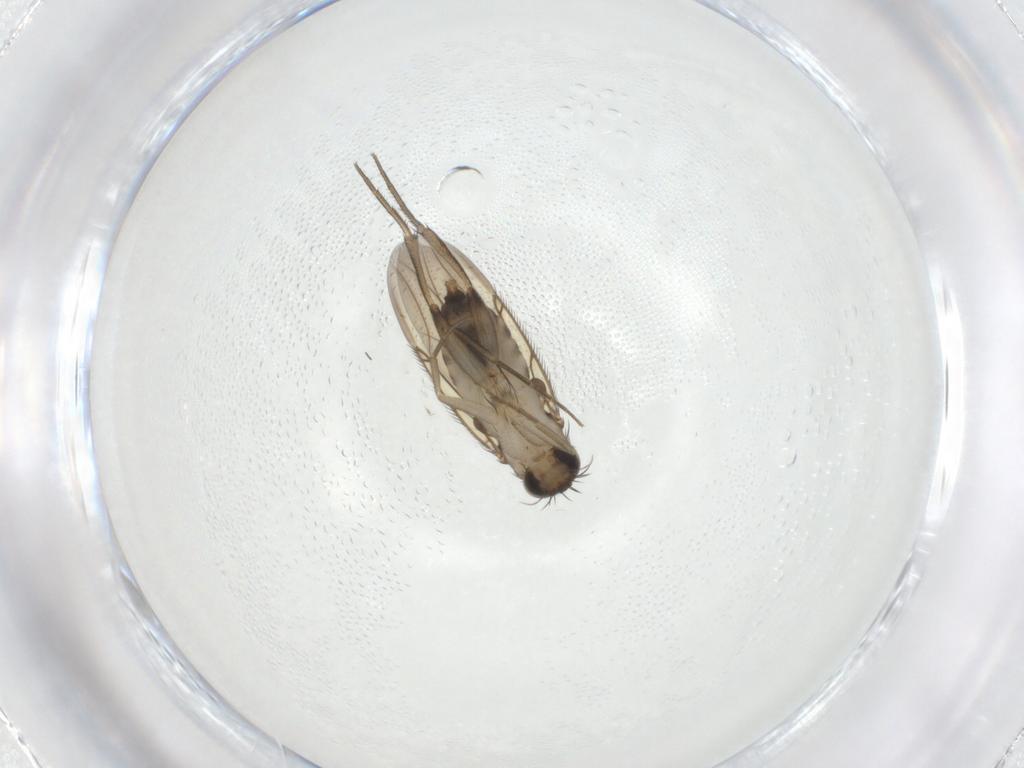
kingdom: Animalia
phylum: Arthropoda
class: Insecta
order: Diptera
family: Phoridae
